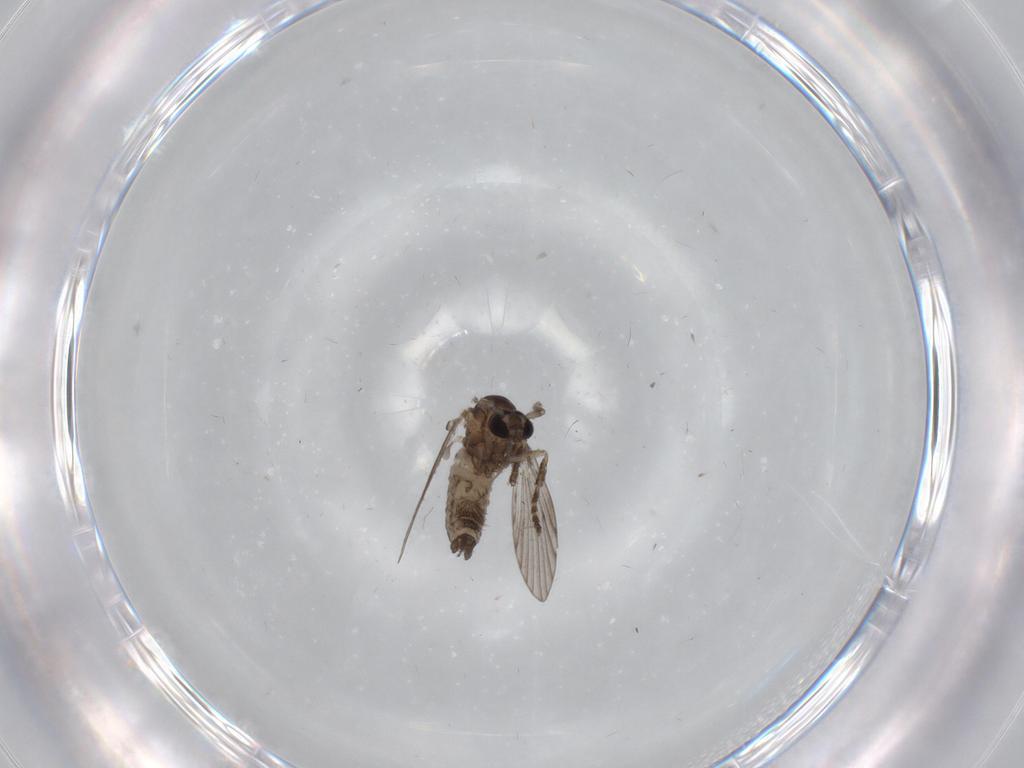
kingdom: Animalia
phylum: Arthropoda
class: Insecta
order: Diptera
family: Psychodidae
